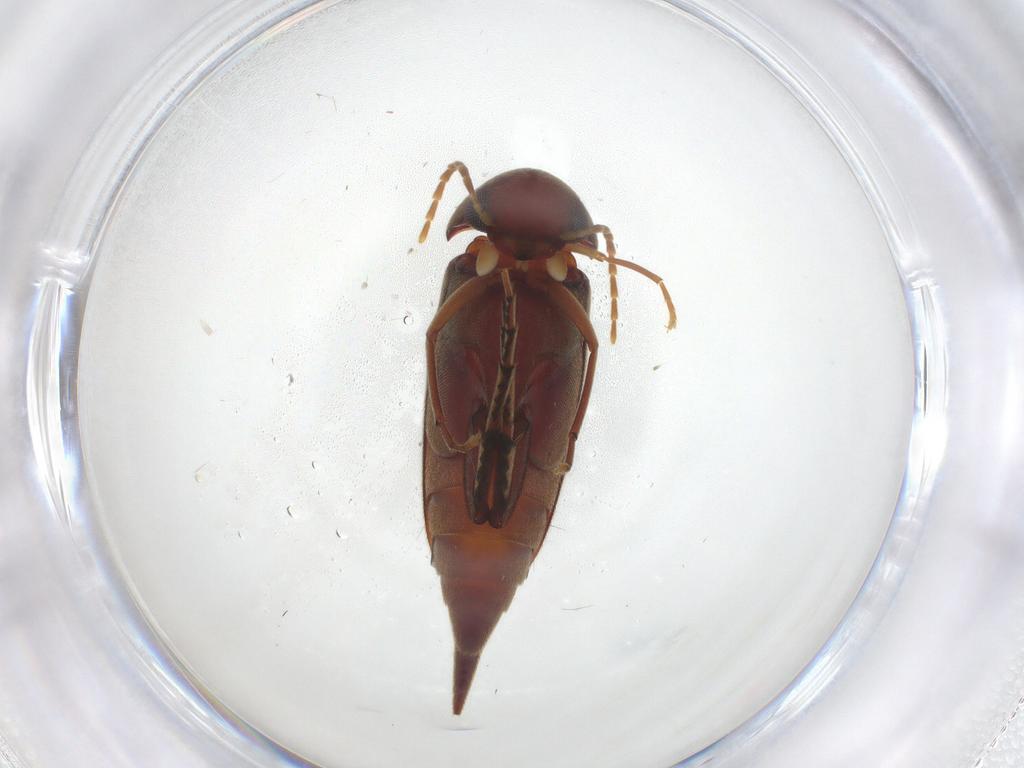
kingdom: Animalia
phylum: Arthropoda
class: Insecta
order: Coleoptera
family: Mordellidae
